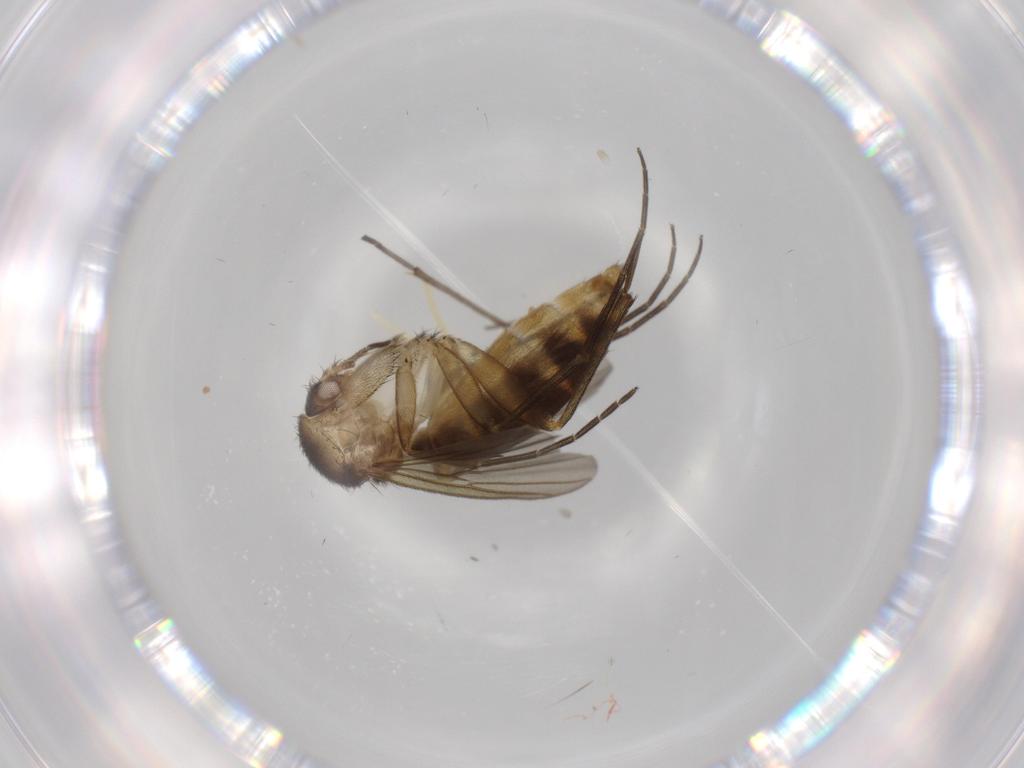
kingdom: Animalia
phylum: Arthropoda
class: Insecta
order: Diptera
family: Chironomidae
